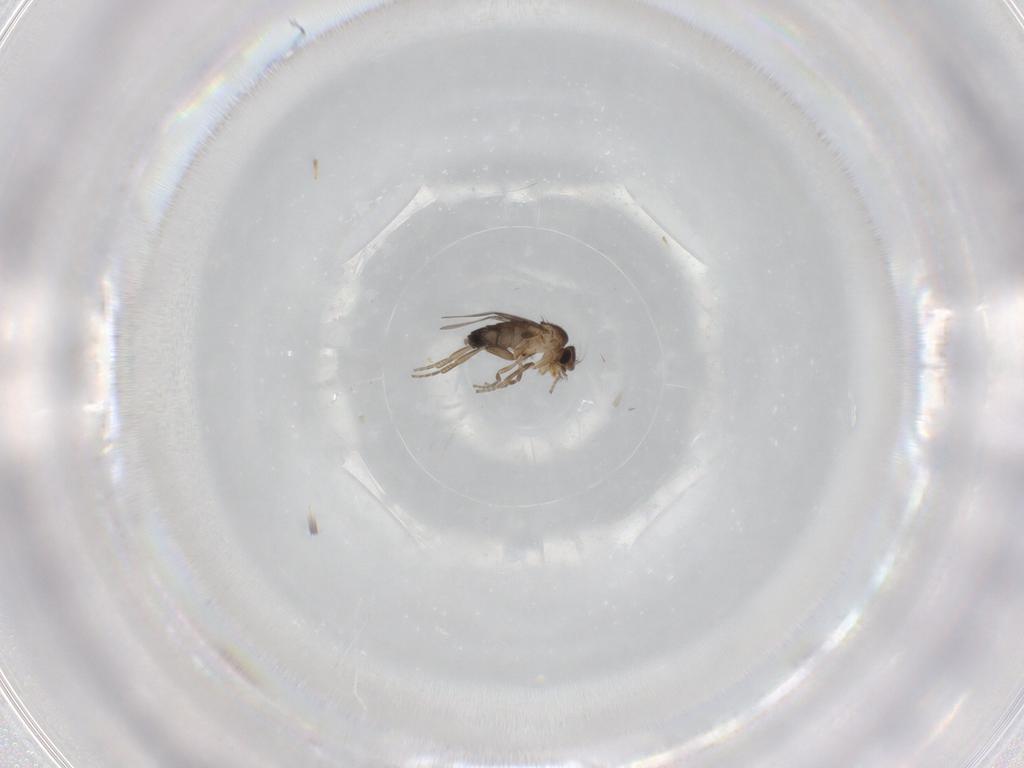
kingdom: Animalia
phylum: Arthropoda
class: Insecta
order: Diptera
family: Phoridae
